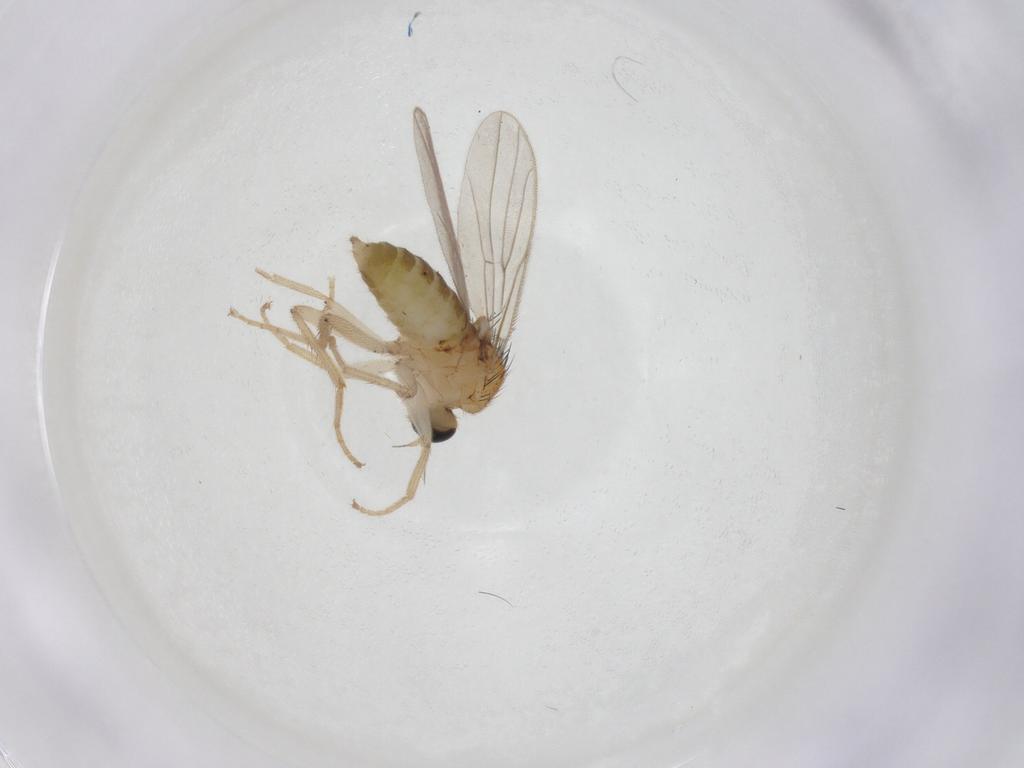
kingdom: Animalia
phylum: Arthropoda
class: Insecta
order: Diptera
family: Hybotidae
